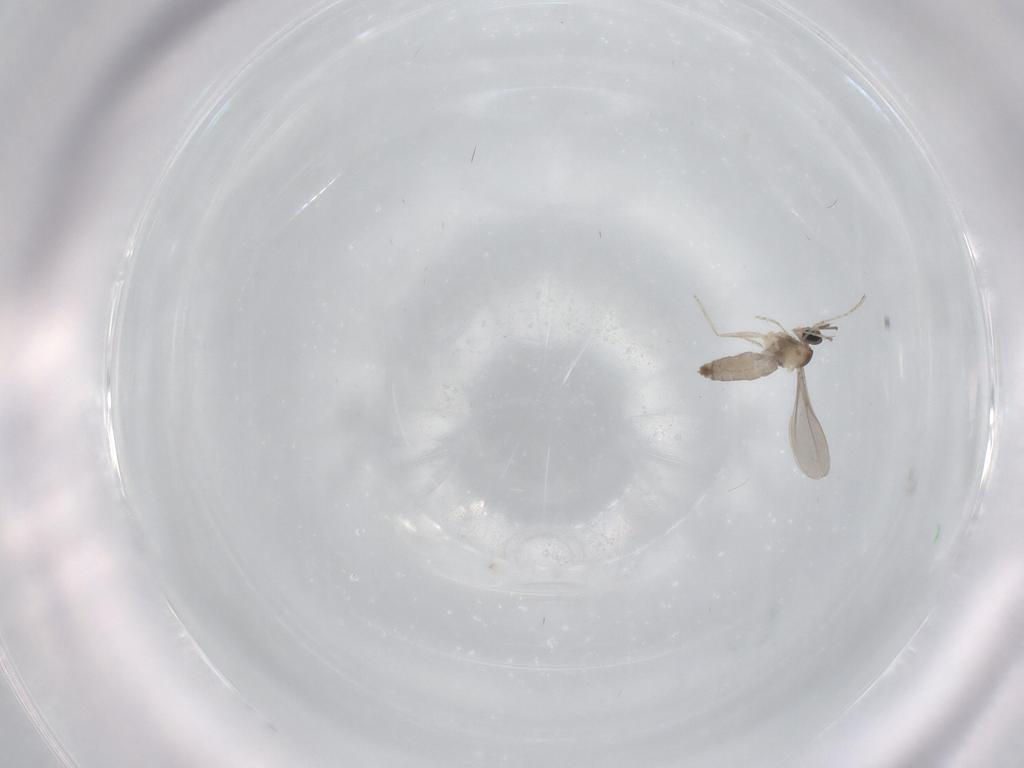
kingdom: Animalia
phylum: Arthropoda
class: Insecta
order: Diptera
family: Cecidomyiidae
